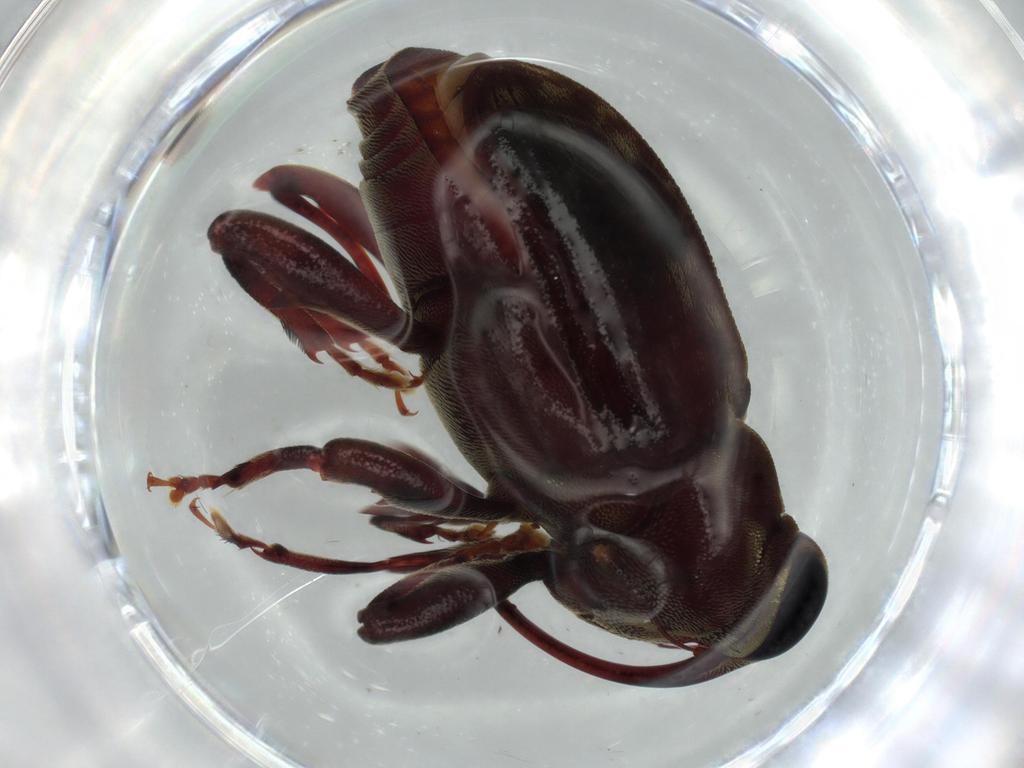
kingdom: Animalia
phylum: Arthropoda
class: Insecta
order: Coleoptera
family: Curculionidae
